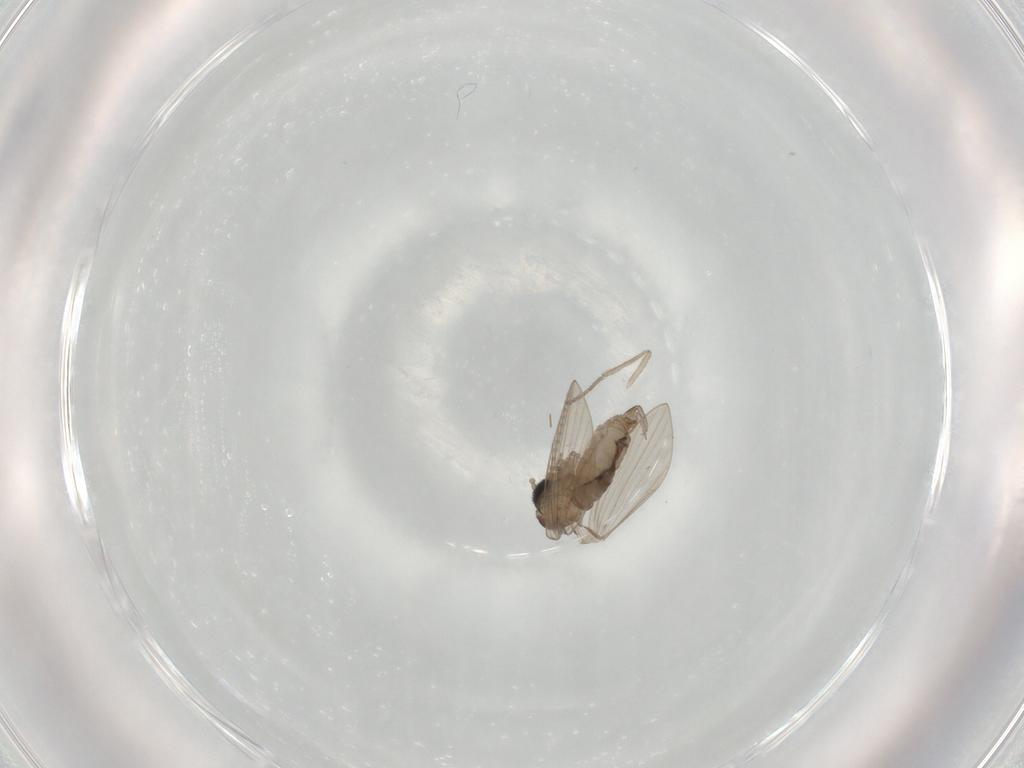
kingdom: Animalia
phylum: Arthropoda
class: Insecta
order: Diptera
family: Psychodidae
